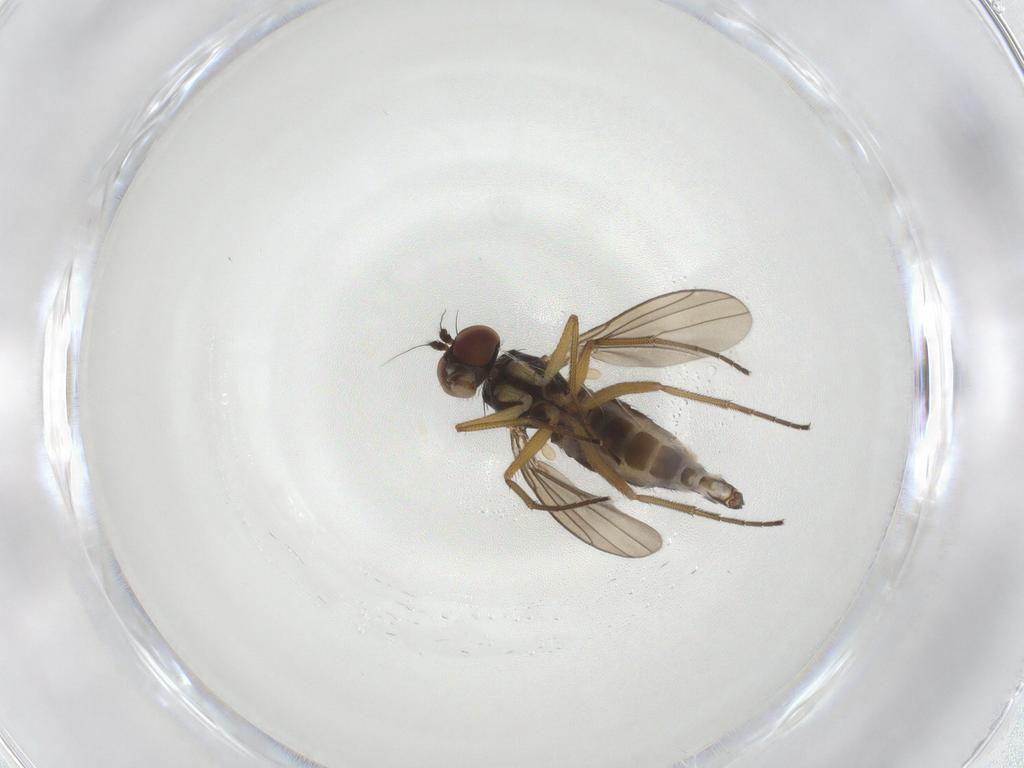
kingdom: Animalia
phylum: Arthropoda
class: Insecta
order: Diptera
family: Dolichopodidae
